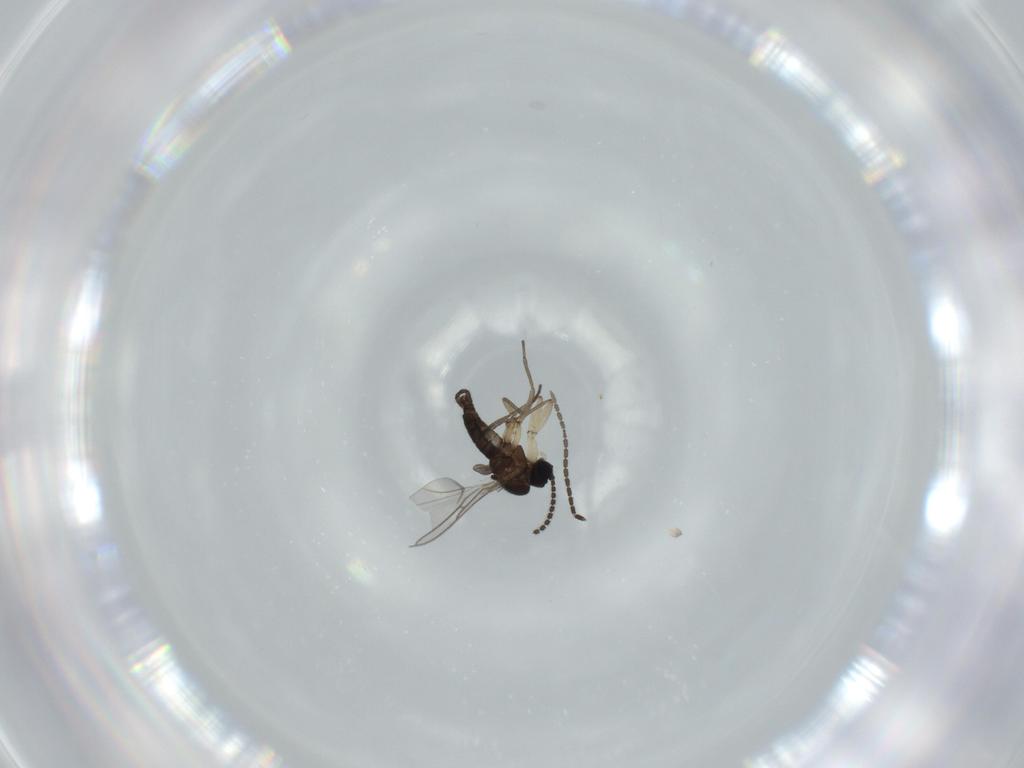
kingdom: Animalia
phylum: Arthropoda
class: Insecta
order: Diptera
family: Sciaridae
